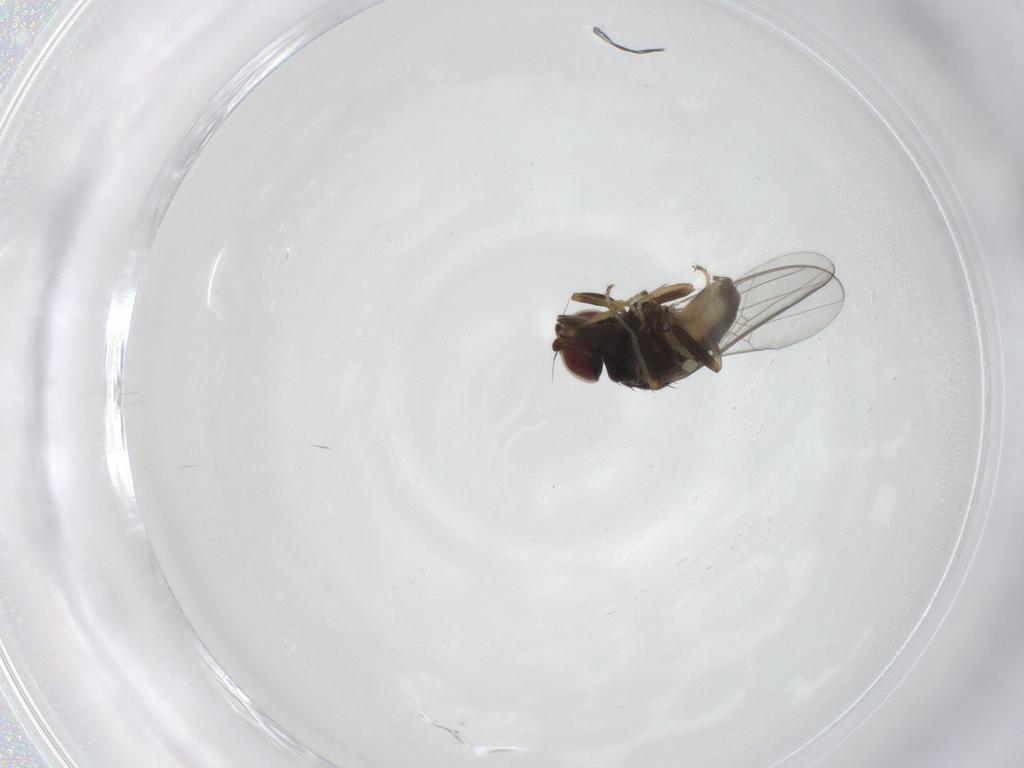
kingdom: Animalia
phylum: Arthropoda
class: Insecta
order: Diptera
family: Chloropidae
